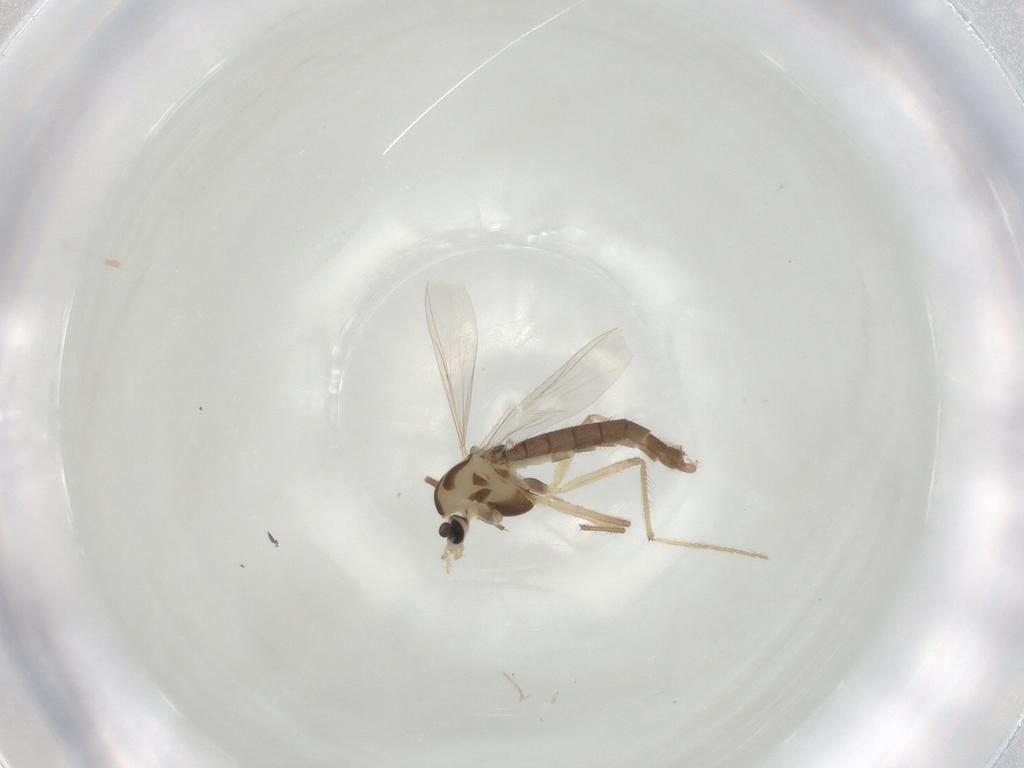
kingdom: Animalia
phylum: Arthropoda
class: Insecta
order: Diptera
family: Chironomidae
